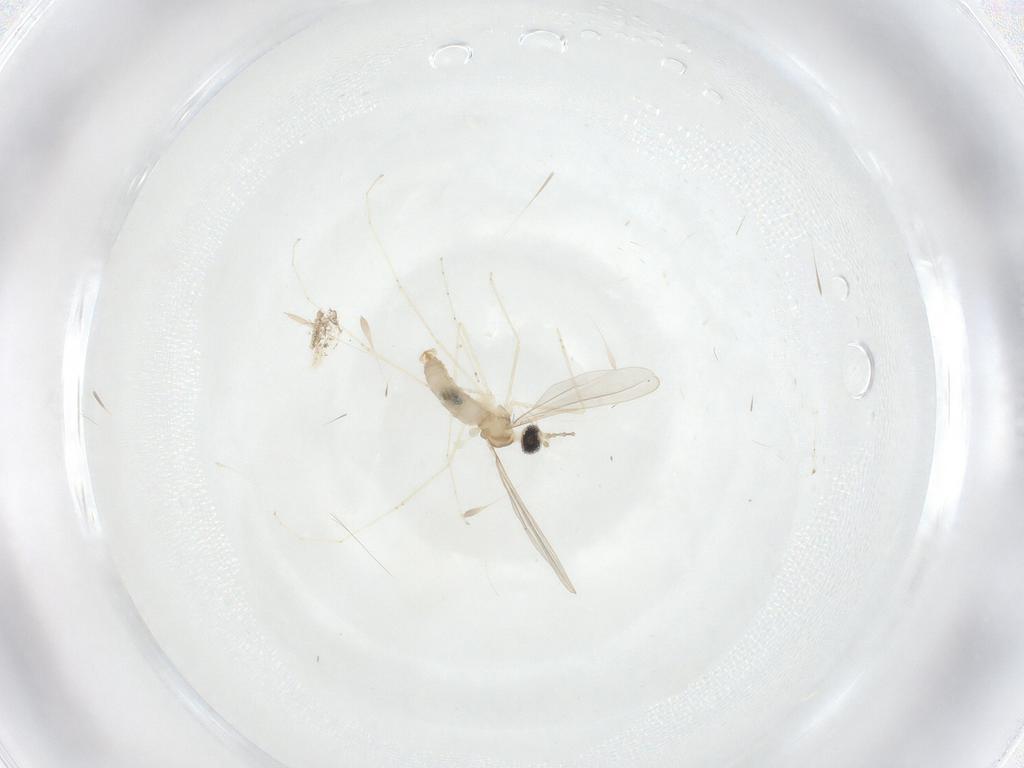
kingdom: Animalia
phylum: Arthropoda
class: Insecta
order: Diptera
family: Cecidomyiidae
